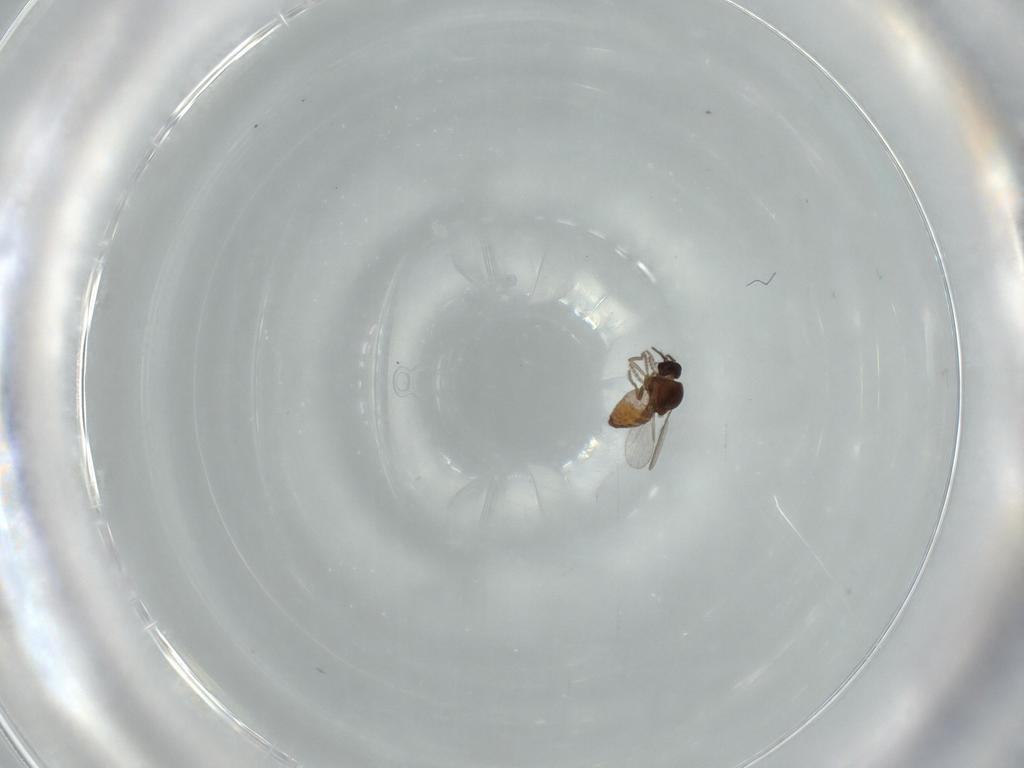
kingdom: Animalia
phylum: Arthropoda
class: Insecta
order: Diptera
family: Ceratopogonidae
